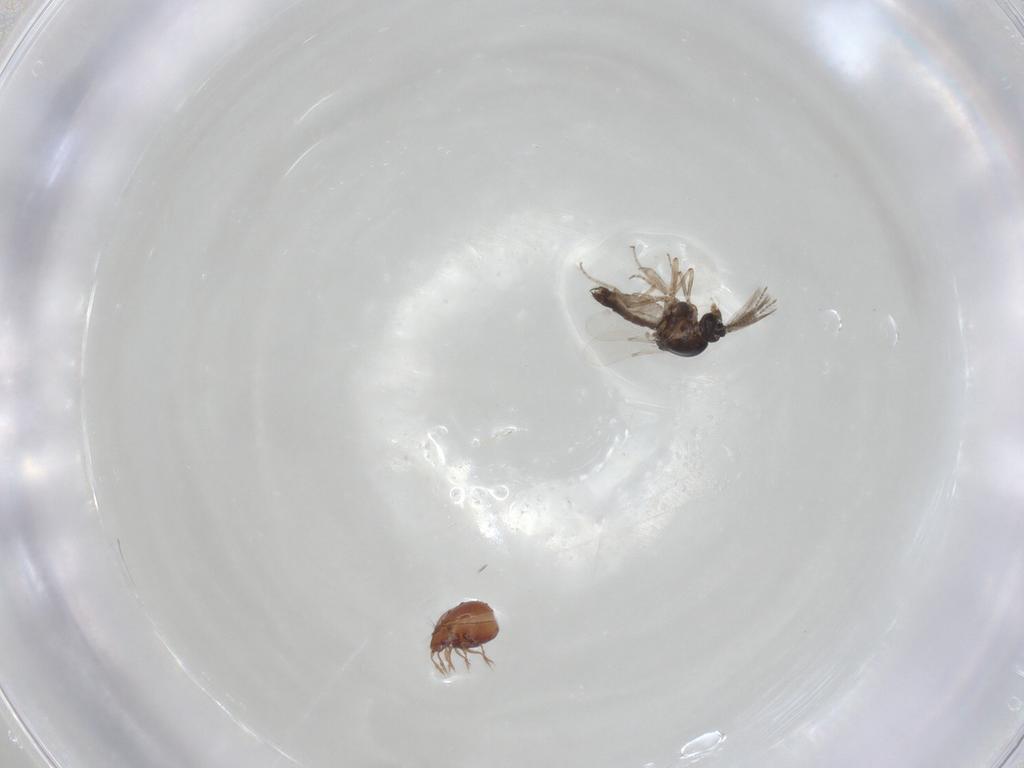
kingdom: Animalia
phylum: Arthropoda
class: Insecta
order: Diptera
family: Ceratopogonidae
